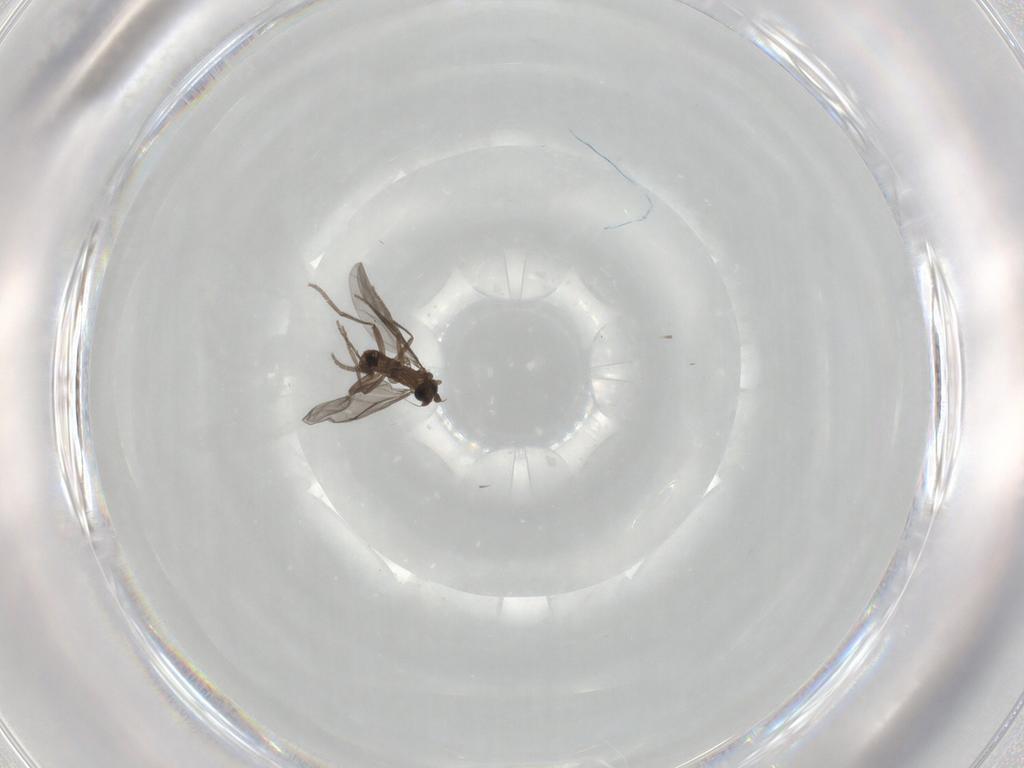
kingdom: Animalia
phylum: Arthropoda
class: Insecta
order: Diptera
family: Phoridae
